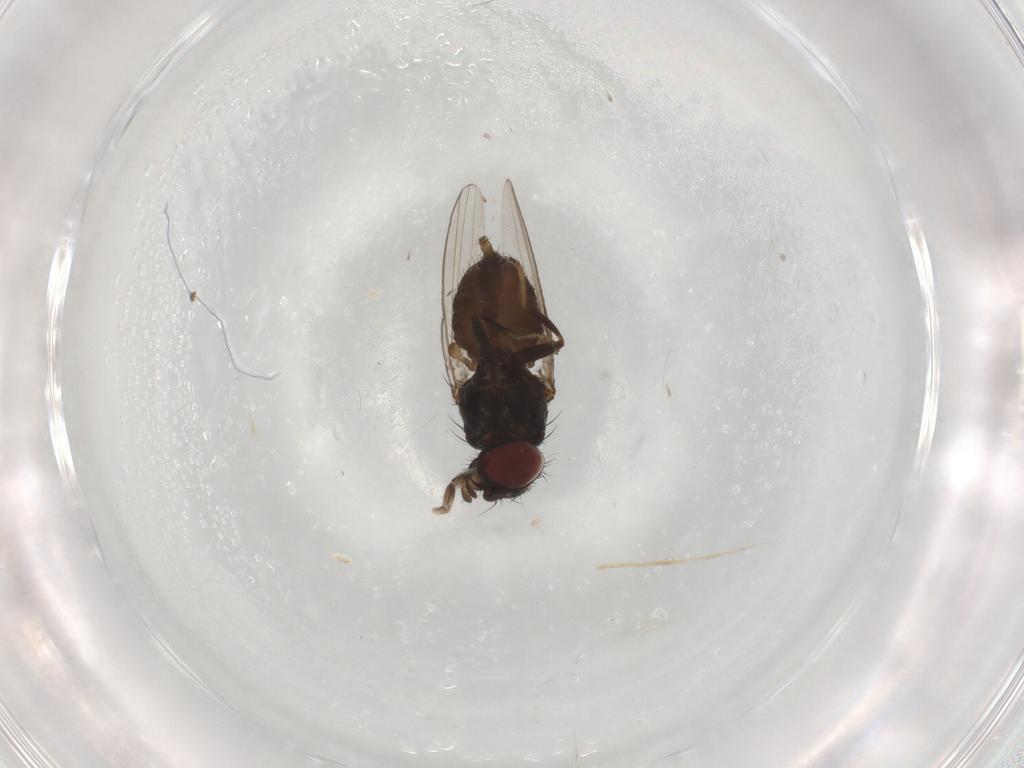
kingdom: Animalia
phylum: Arthropoda
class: Insecta
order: Diptera
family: Milichiidae
